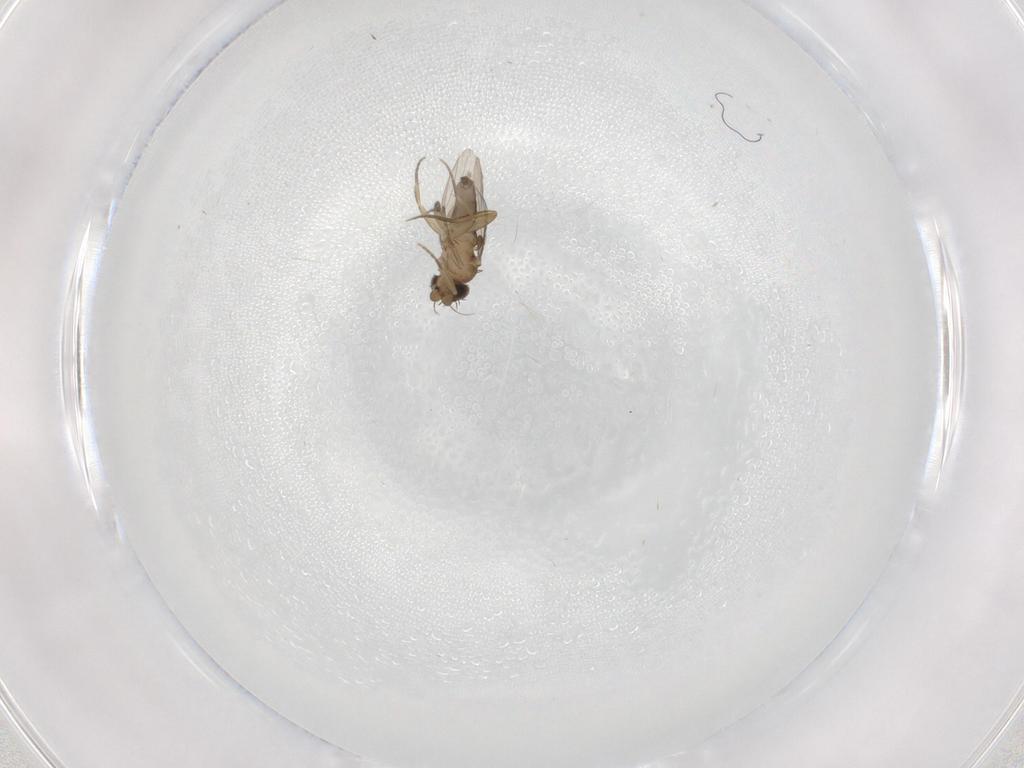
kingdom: Animalia
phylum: Arthropoda
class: Insecta
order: Diptera
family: Phoridae
